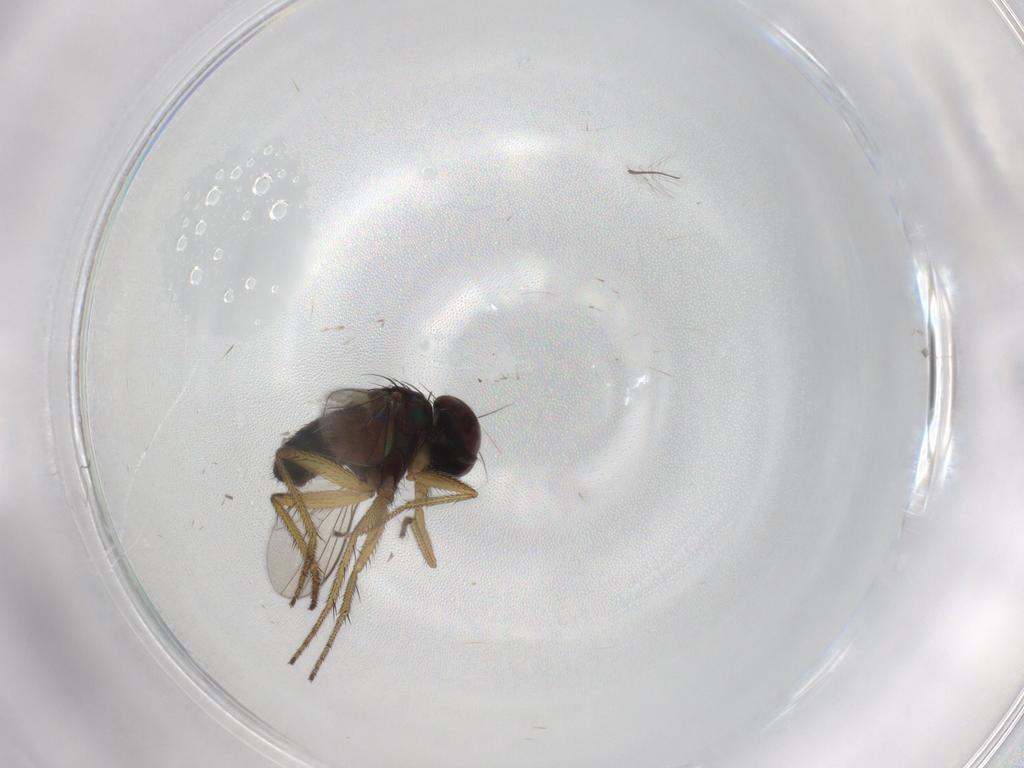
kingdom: Animalia
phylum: Arthropoda
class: Insecta
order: Diptera
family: Chironomidae
